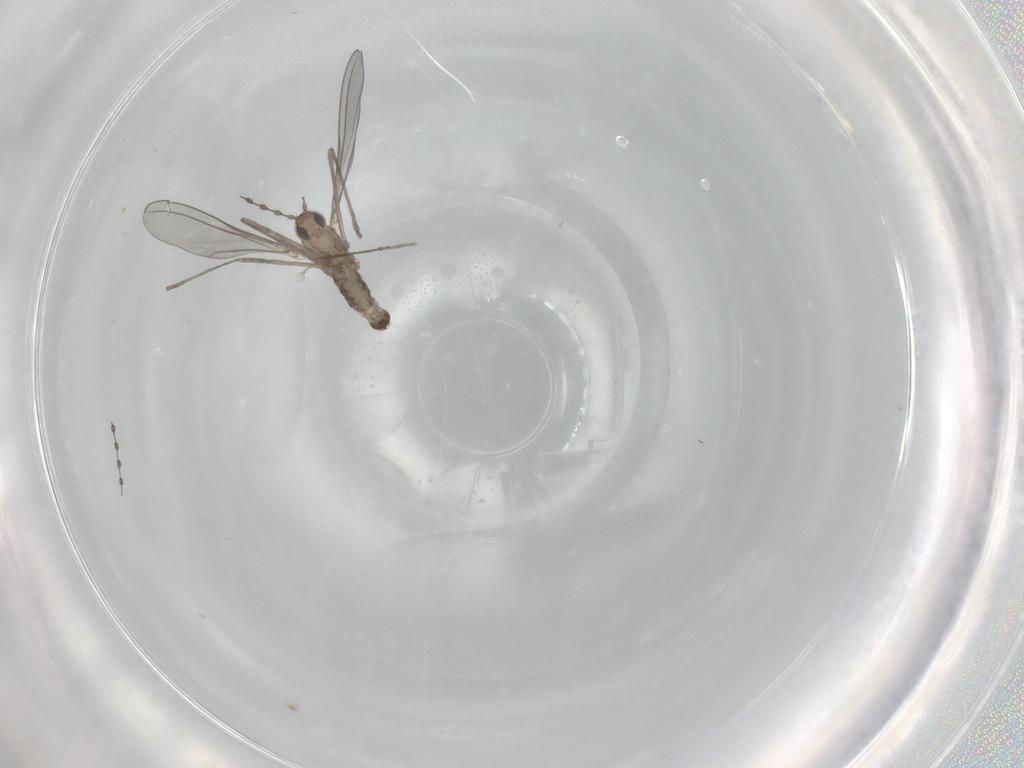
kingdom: Animalia
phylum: Arthropoda
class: Insecta
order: Diptera
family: Cecidomyiidae
